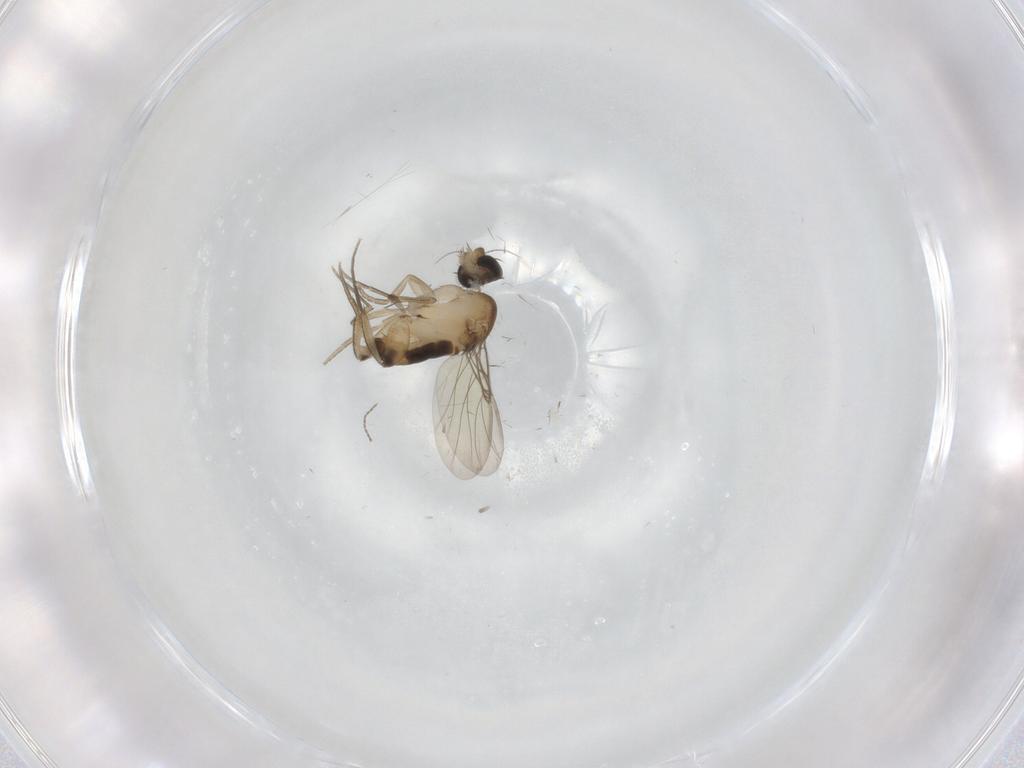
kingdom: Animalia
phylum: Arthropoda
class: Insecta
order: Diptera
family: Phoridae
